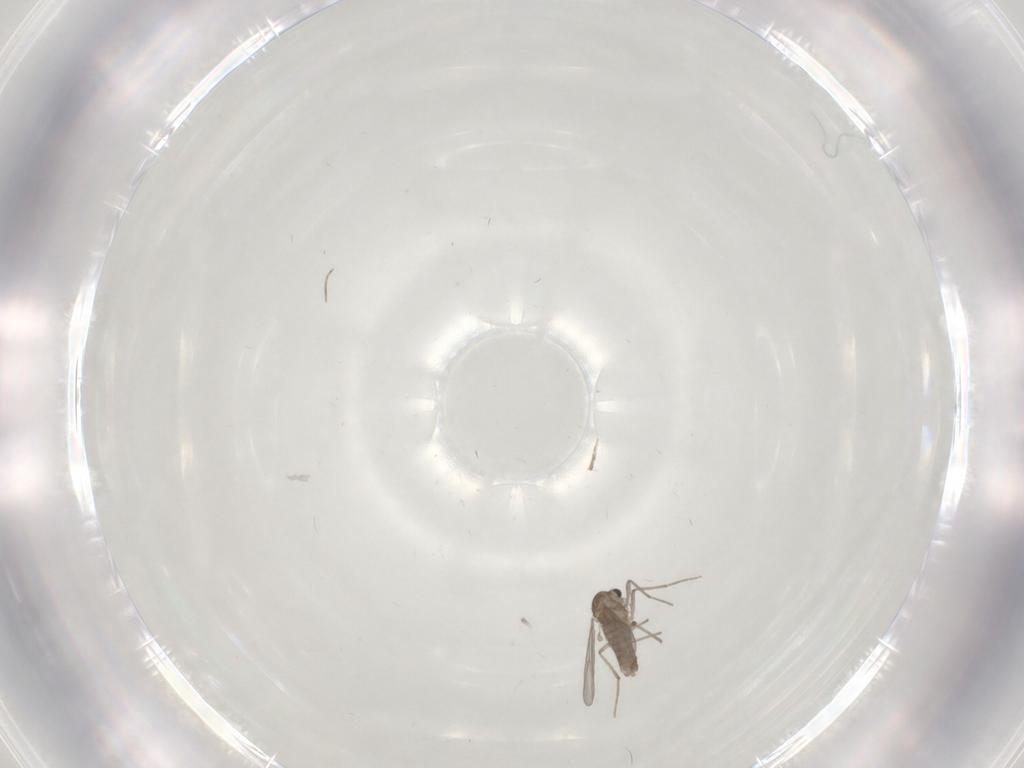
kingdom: Animalia
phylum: Arthropoda
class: Insecta
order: Diptera
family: Chironomidae
